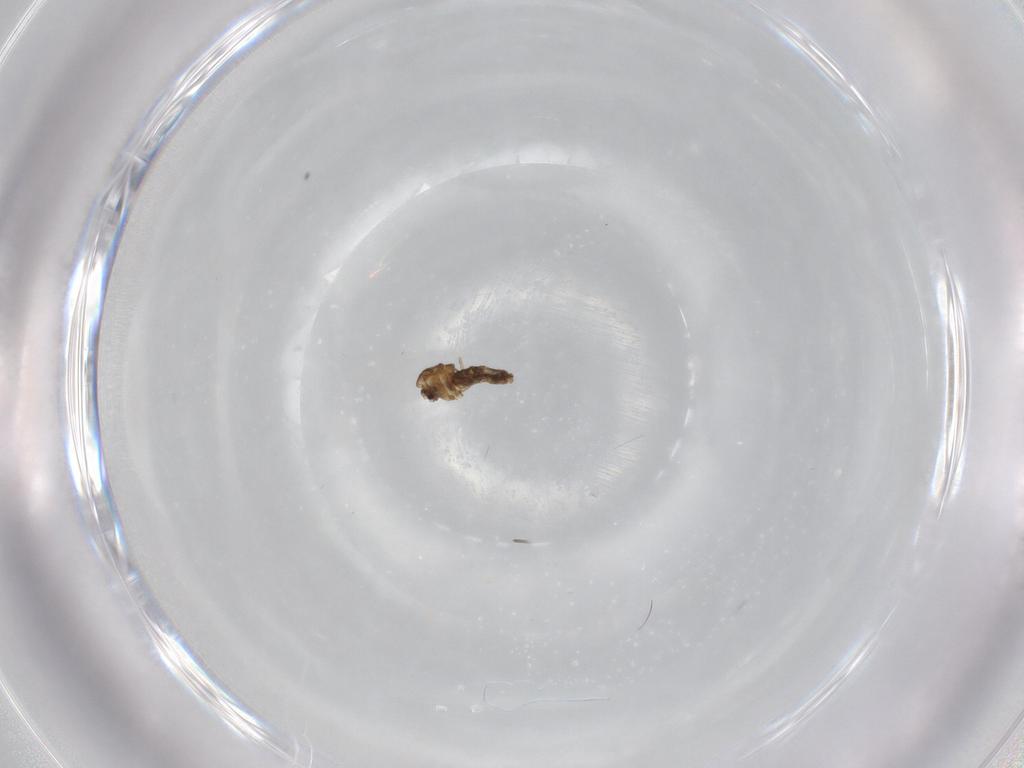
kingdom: Animalia
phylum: Arthropoda
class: Insecta
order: Diptera
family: Chironomidae
